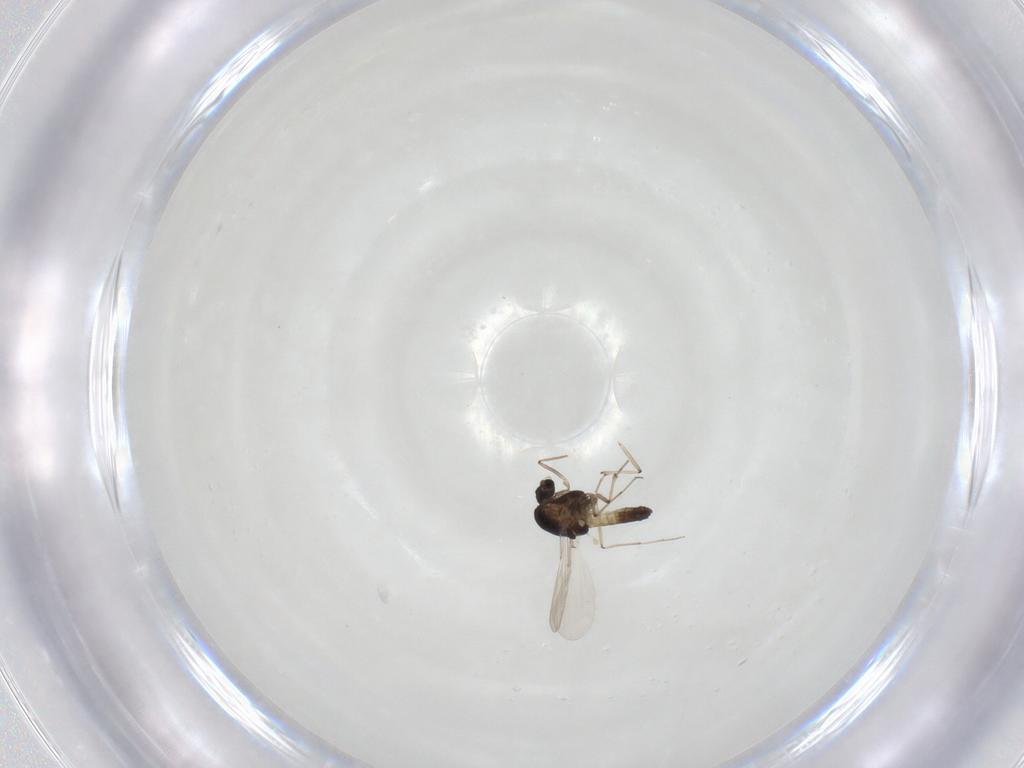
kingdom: Animalia
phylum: Arthropoda
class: Insecta
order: Diptera
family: Chironomidae
